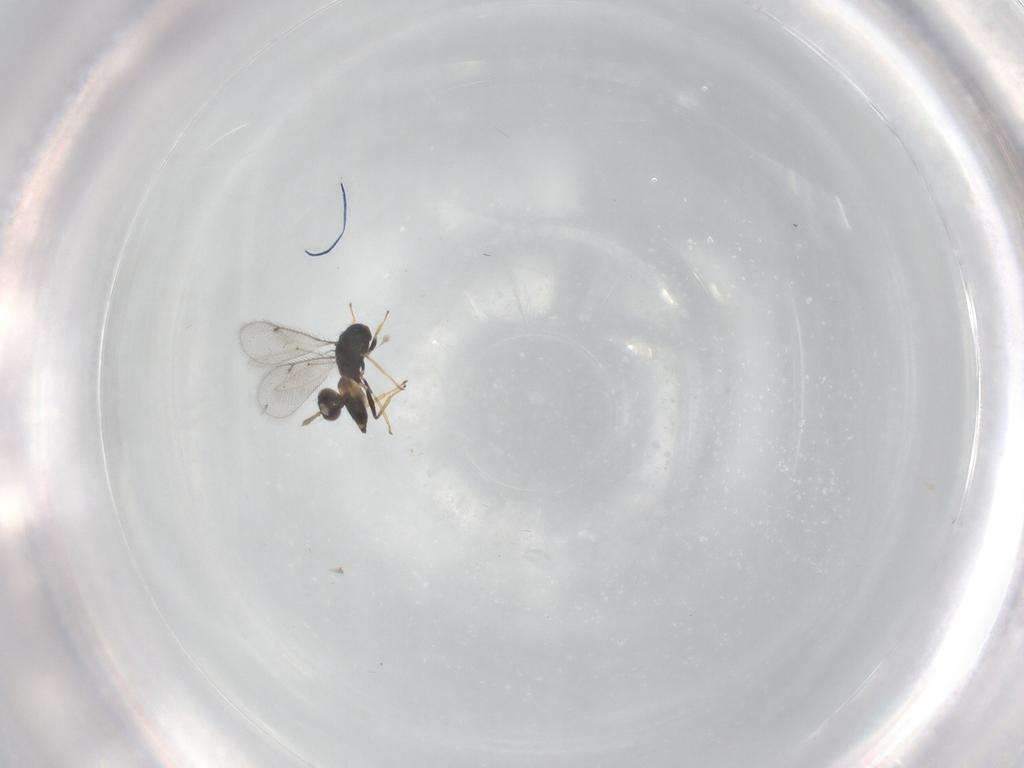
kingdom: Animalia
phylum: Arthropoda
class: Insecta
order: Hymenoptera
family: Eulophidae
